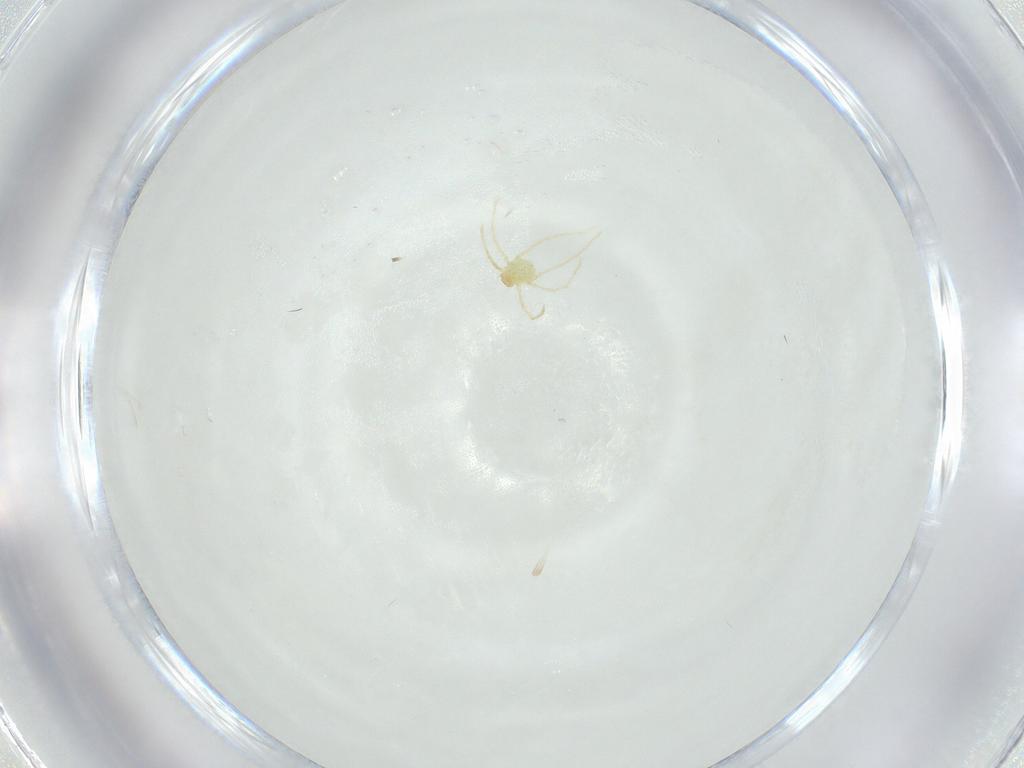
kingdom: Animalia
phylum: Arthropoda
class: Arachnida
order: Trombidiformes
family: Erythraeidae
